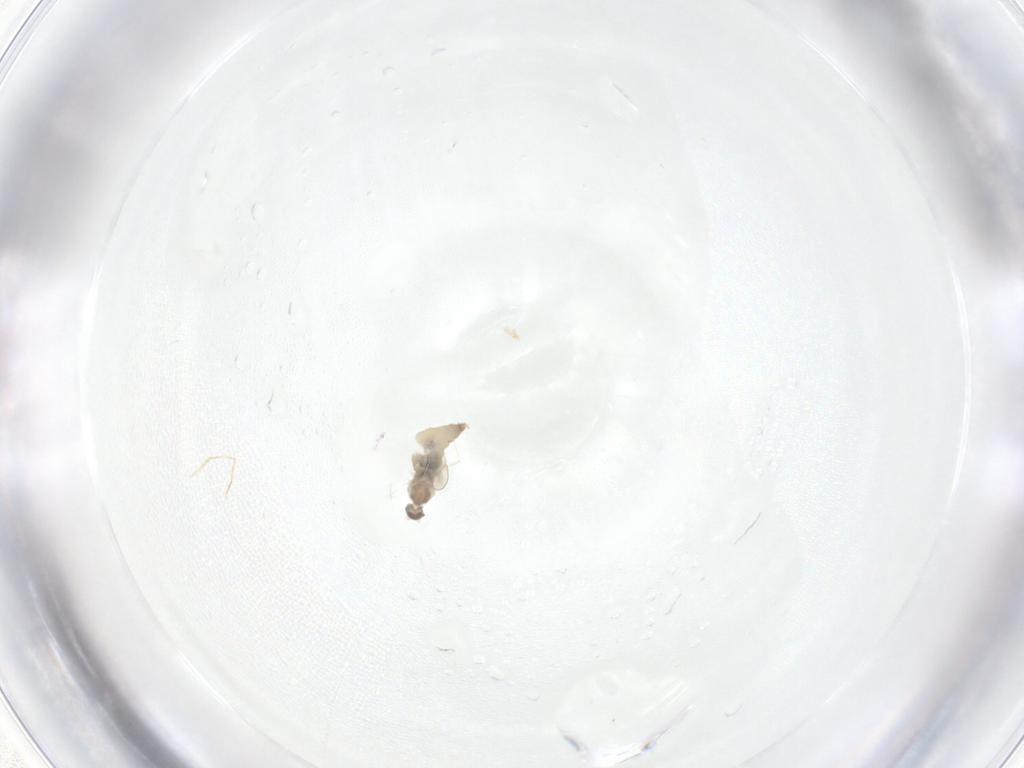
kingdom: Animalia
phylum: Arthropoda
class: Insecta
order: Diptera
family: Cecidomyiidae
